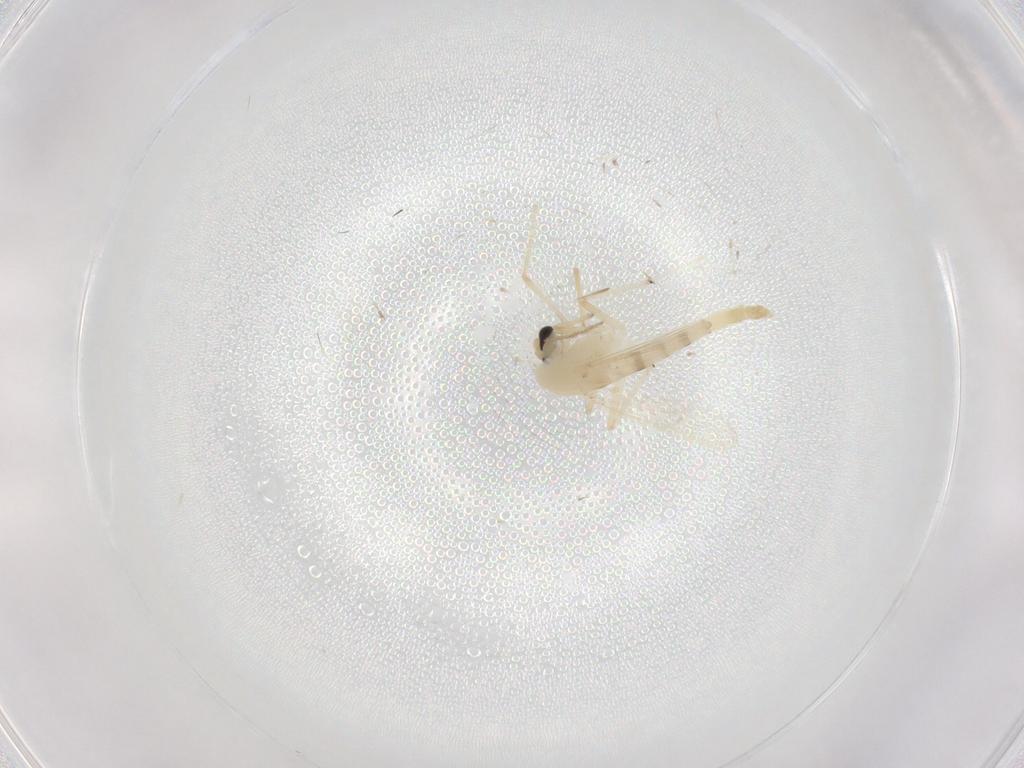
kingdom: Animalia
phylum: Arthropoda
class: Insecta
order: Diptera
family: Chironomidae
